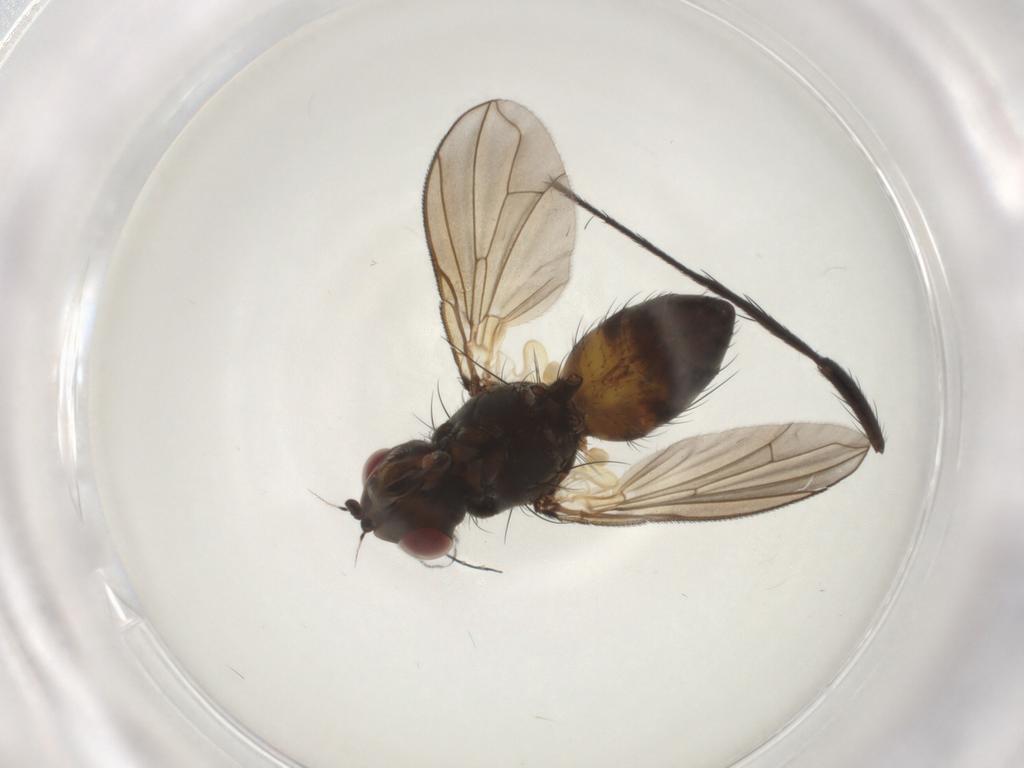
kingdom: Animalia
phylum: Arthropoda
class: Insecta
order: Diptera
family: Tachinidae
